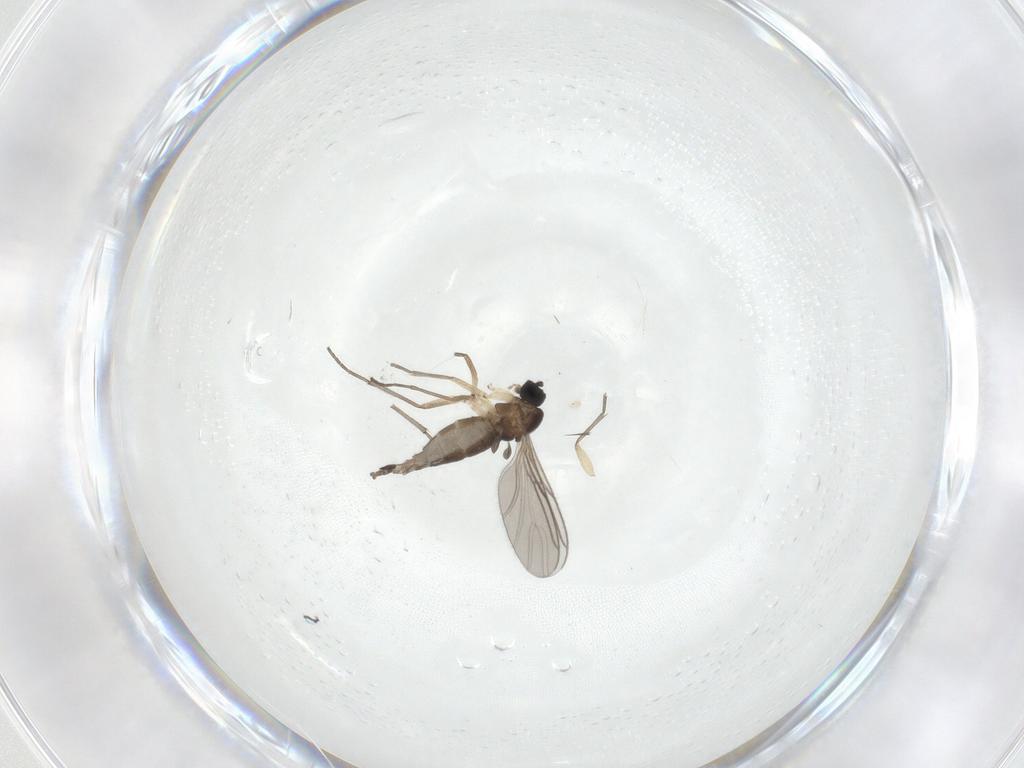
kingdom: Animalia
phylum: Arthropoda
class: Insecta
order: Diptera
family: Sciaridae
